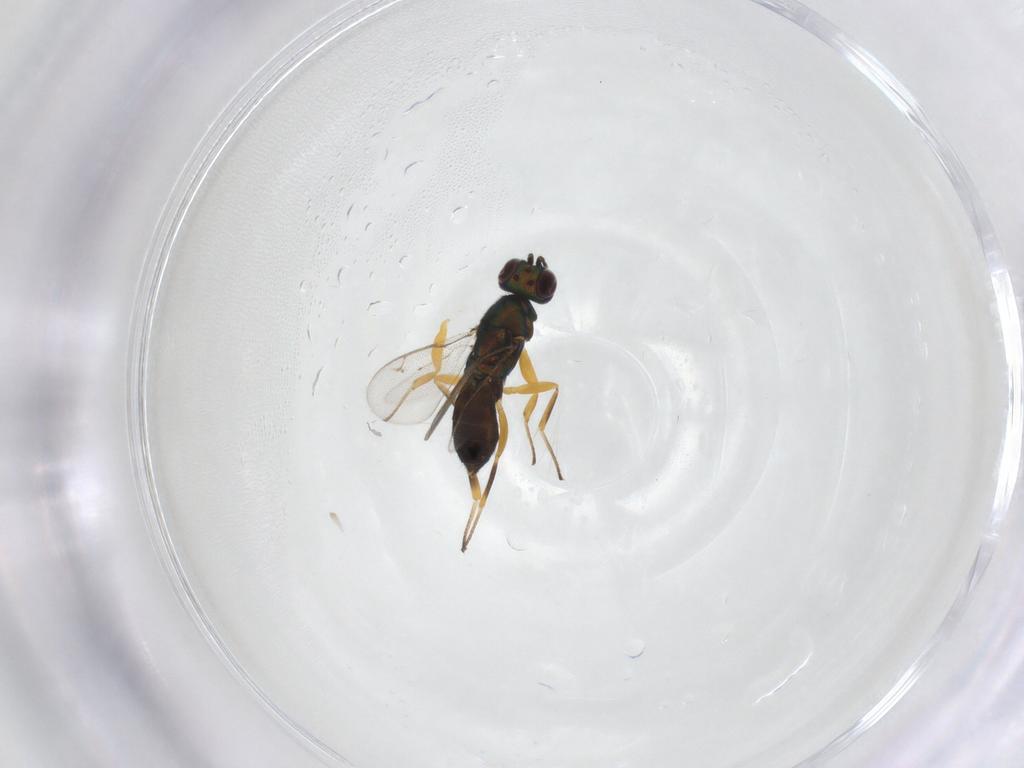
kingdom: Animalia
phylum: Arthropoda
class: Insecta
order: Hymenoptera
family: Eupelmidae
